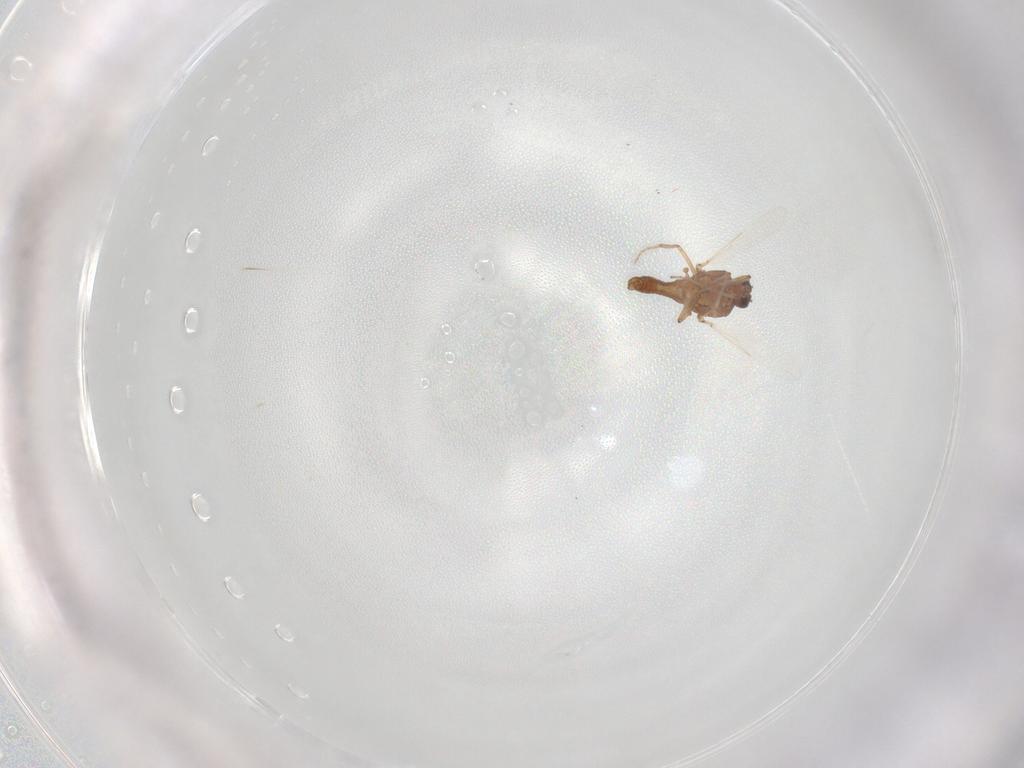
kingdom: Animalia
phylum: Arthropoda
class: Insecta
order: Diptera
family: Ceratopogonidae
